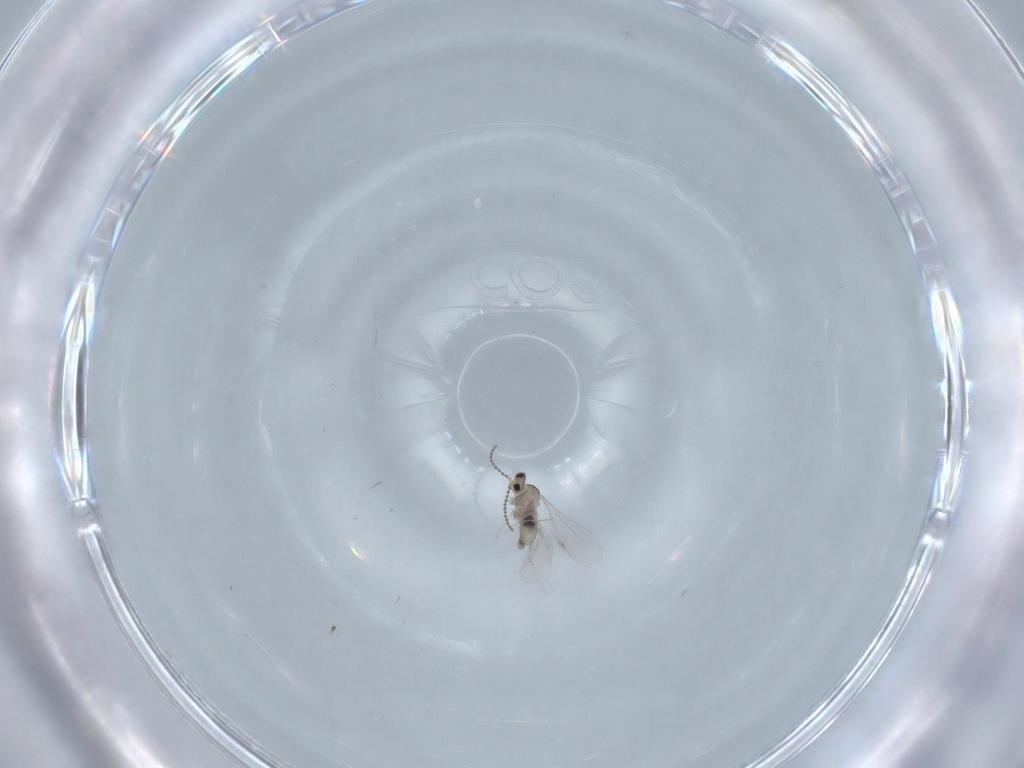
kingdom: Animalia
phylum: Arthropoda
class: Insecta
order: Diptera
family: Cecidomyiidae
